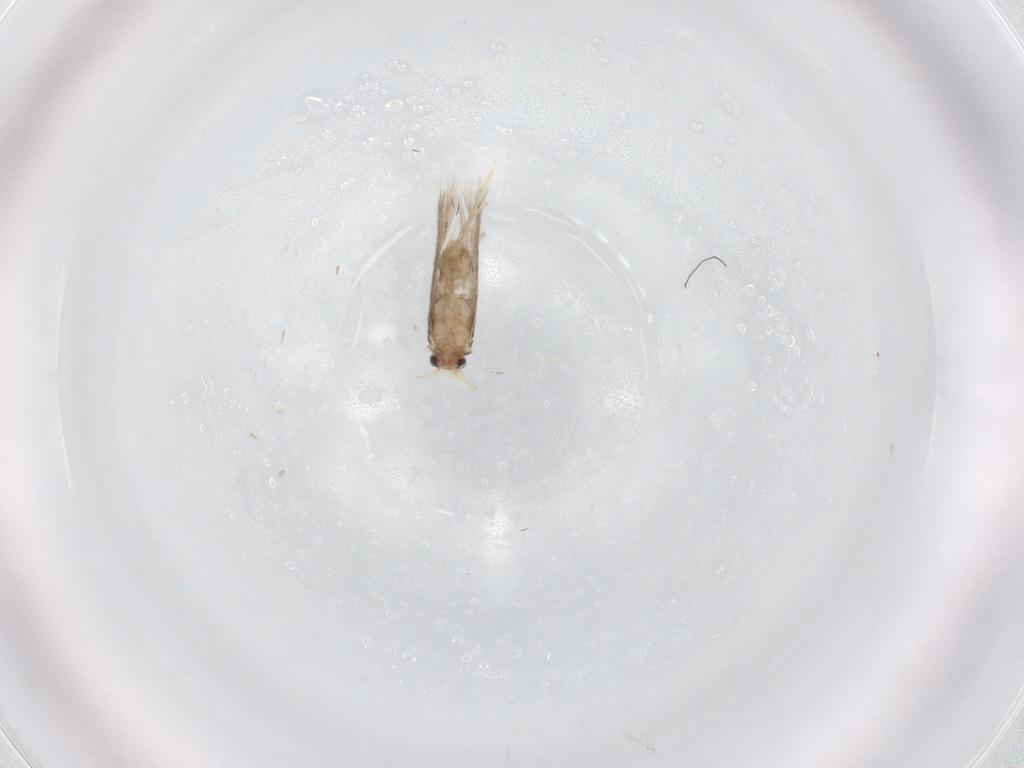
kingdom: Animalia
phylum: Arthropoda
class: Insecta
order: Lepidoptera
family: Nepticulidae
